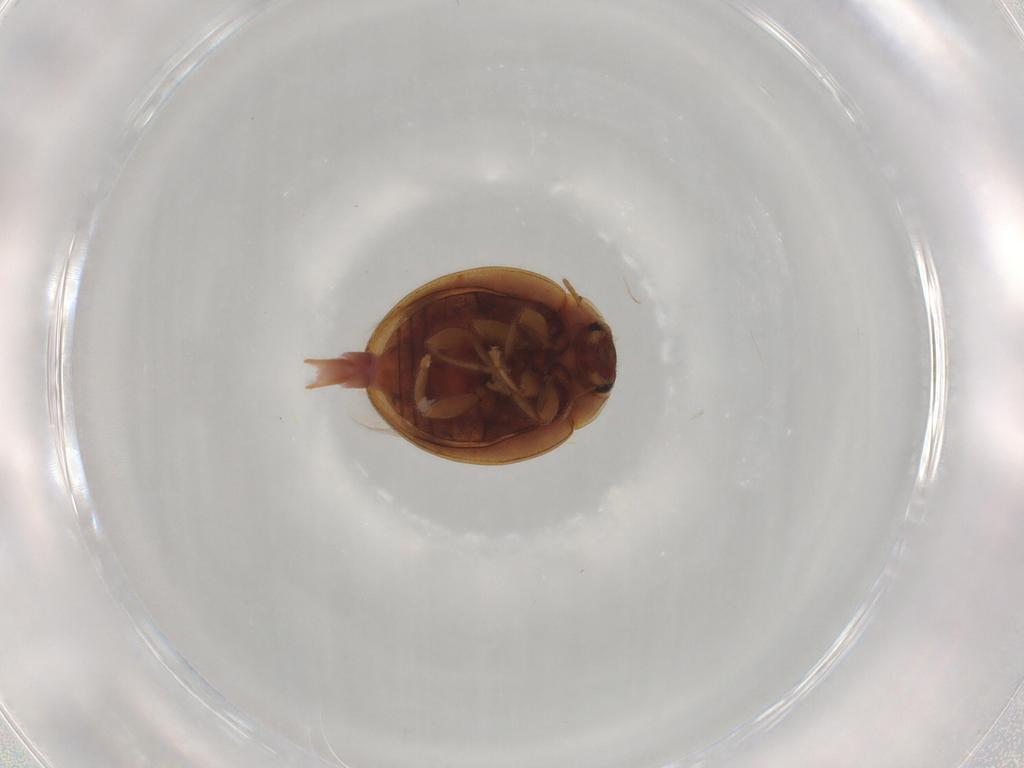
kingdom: Animalia
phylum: Arthropoda
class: Insecta
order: Coleoptera
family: Coccinellidae
